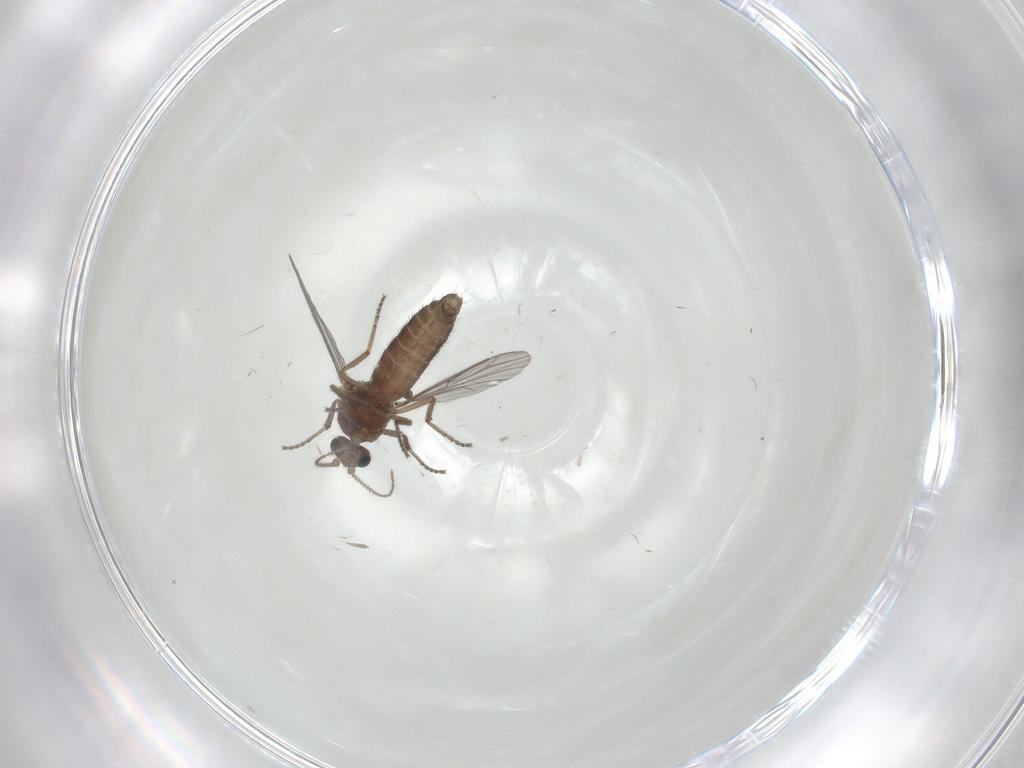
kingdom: Animalia
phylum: Arthropoda
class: Insecta
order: Diptera
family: Ceratopogonidae
